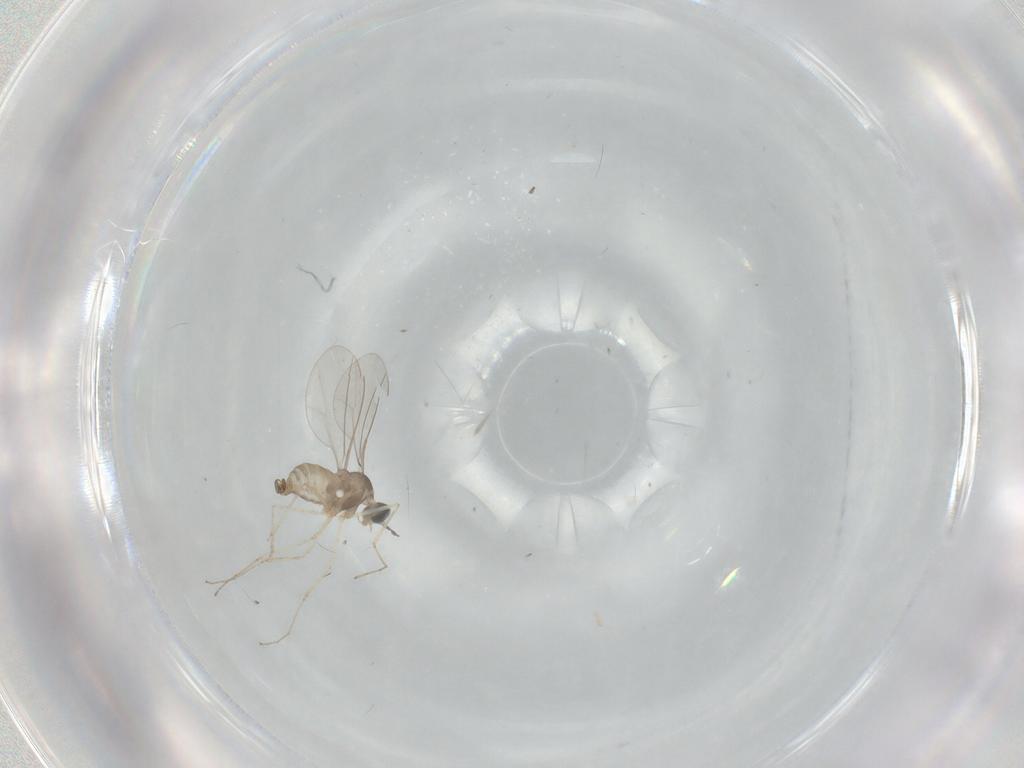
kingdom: Animalia
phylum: Arthropoda
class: Insecta
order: Diptera
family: Cecidomyiidae
